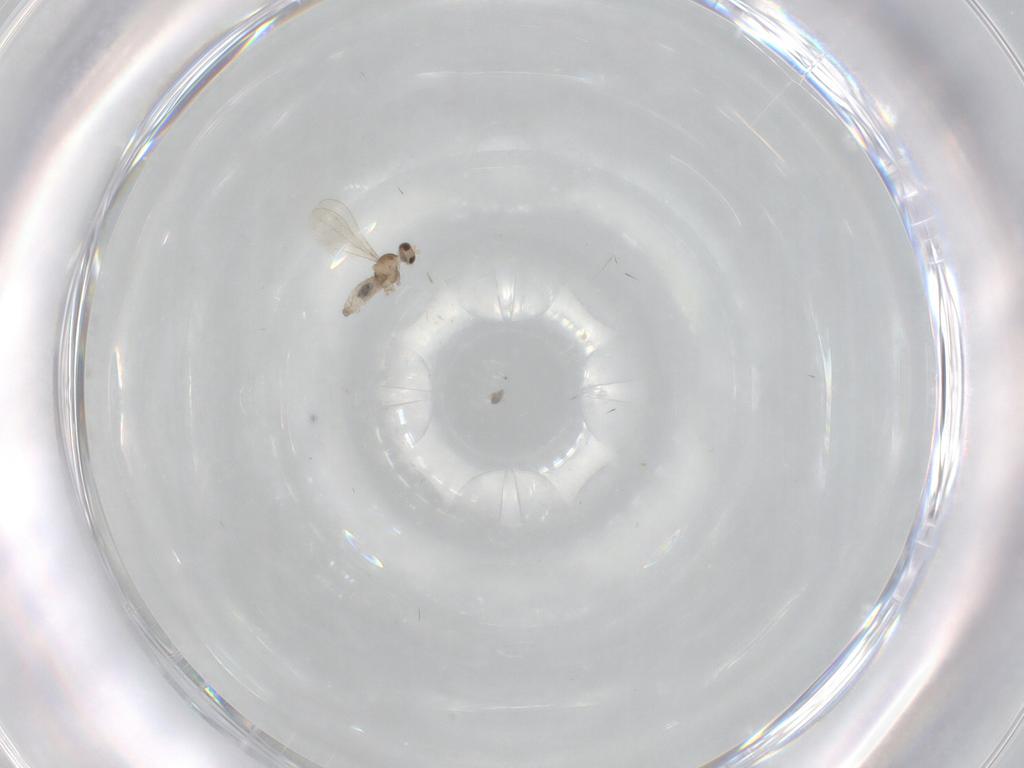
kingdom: Animalia
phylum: Arthropoda
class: Insecta
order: Diptera
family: Cecidomyiidae
